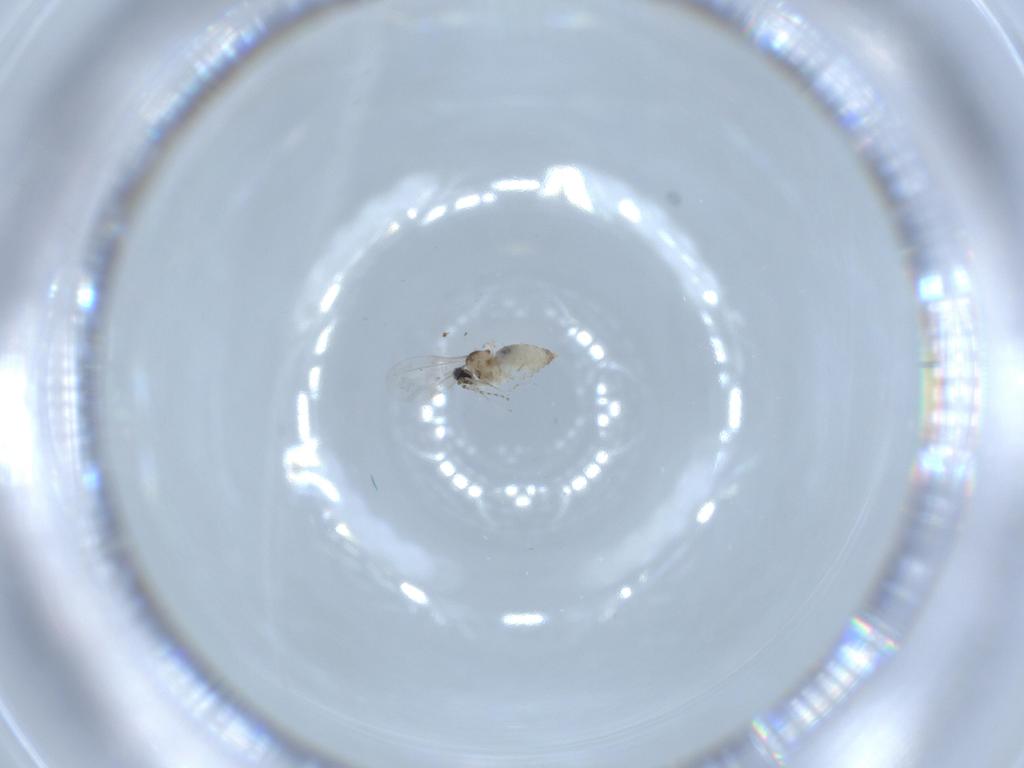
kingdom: Animalia
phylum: Arthropoda
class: Insecta
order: Diptera
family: Cecidomyiidae
